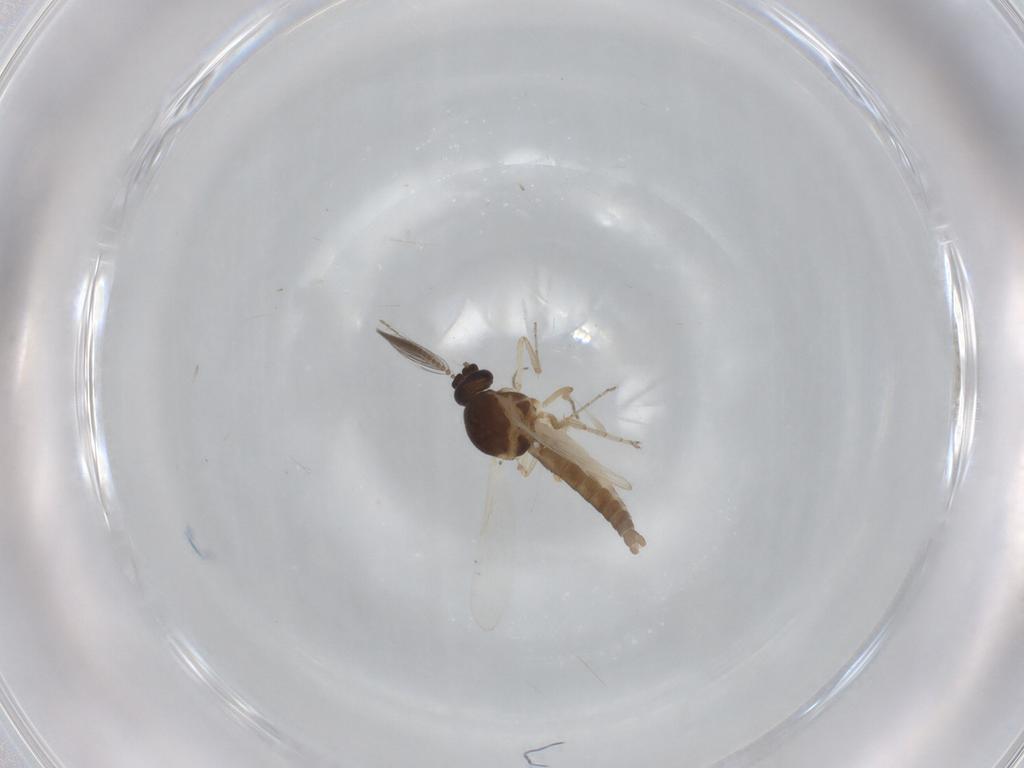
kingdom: Animalia
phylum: Arthropoda
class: Insecta
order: Diptera
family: Ceratopogonidae
